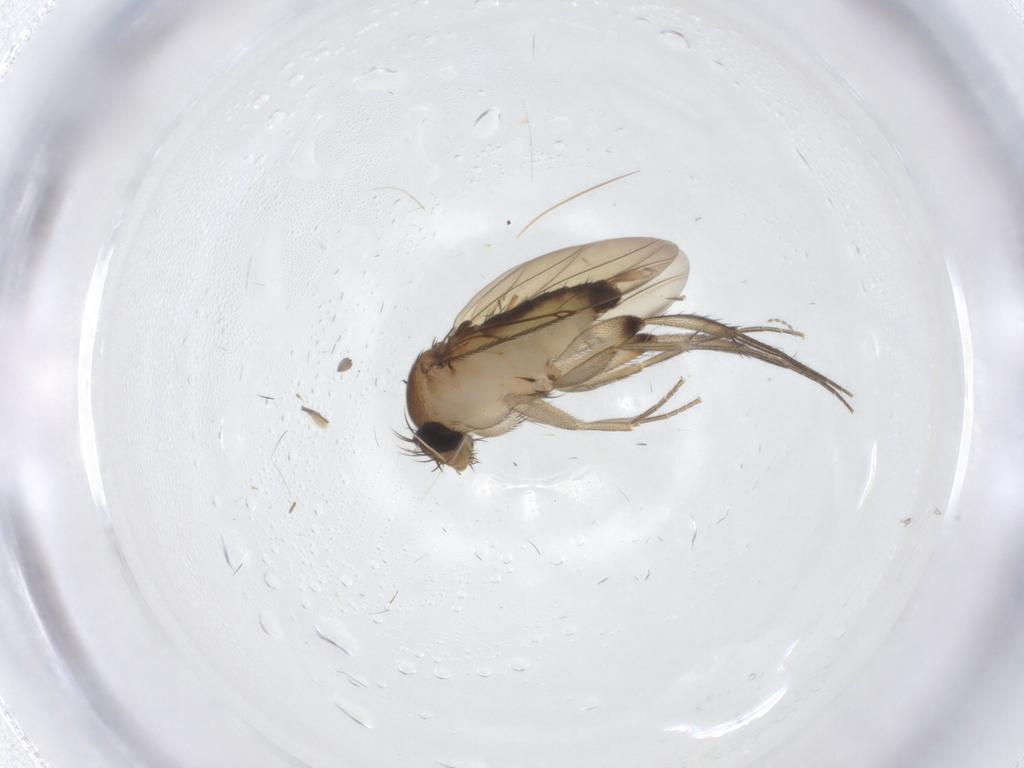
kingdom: Animalia
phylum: Arthropoda
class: Insecta
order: Diptera
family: Phoridae
